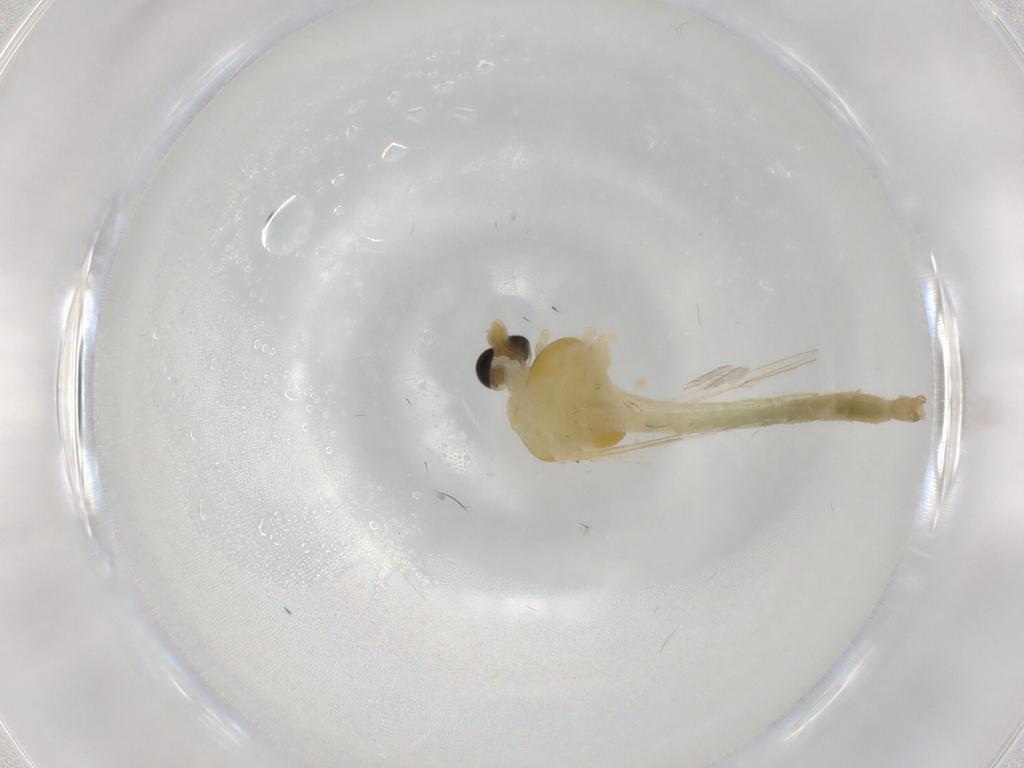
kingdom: Animalia
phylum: Arthropoda
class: Insecta
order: Diptera
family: Chironomidae
